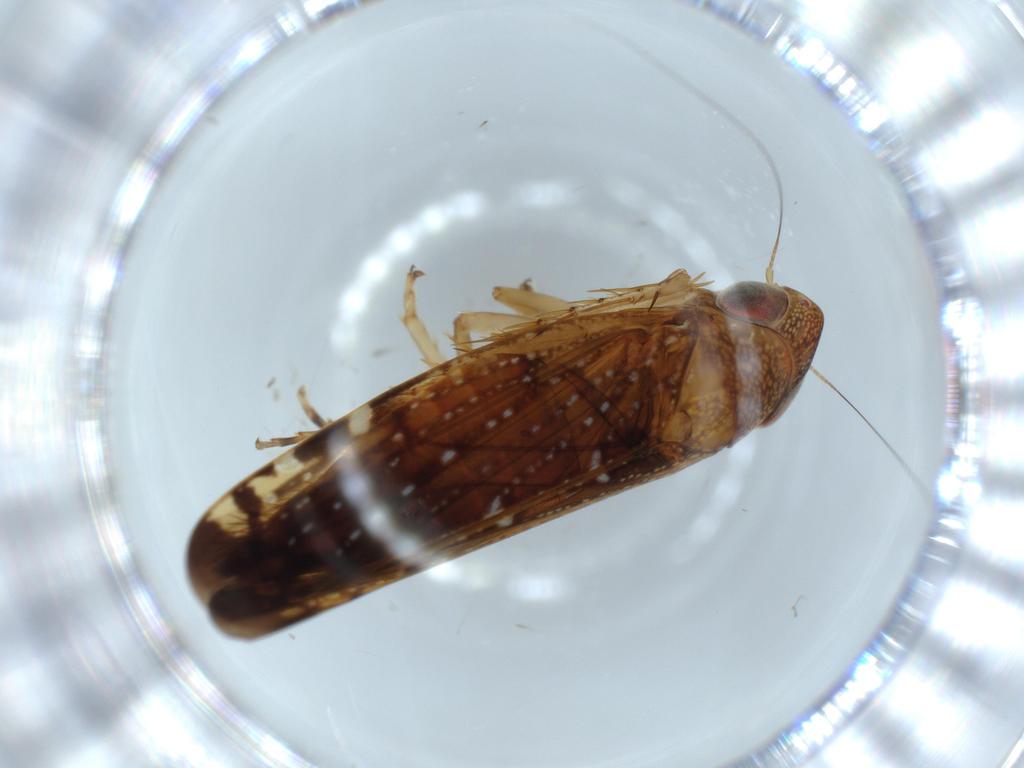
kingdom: Animalia
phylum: Arthropoda
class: Insecta
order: Hemiptera
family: Cicadellidae
